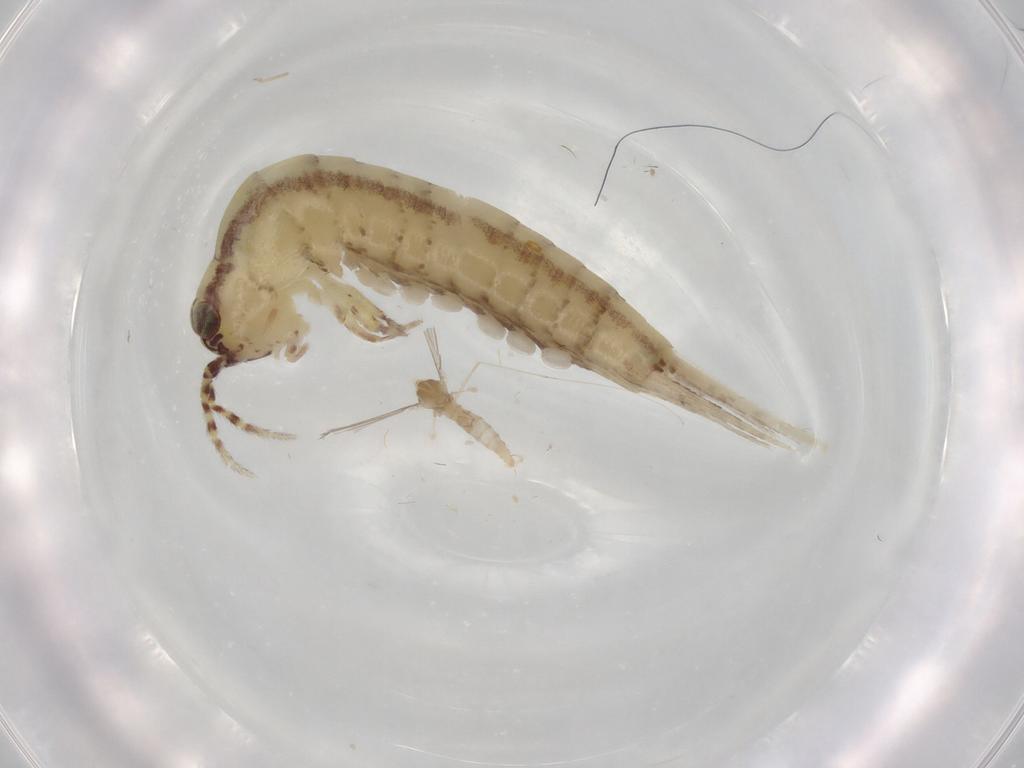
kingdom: Animalia
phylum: Arthropoda
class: Insecta
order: Archaeognatha
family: Machilidae
